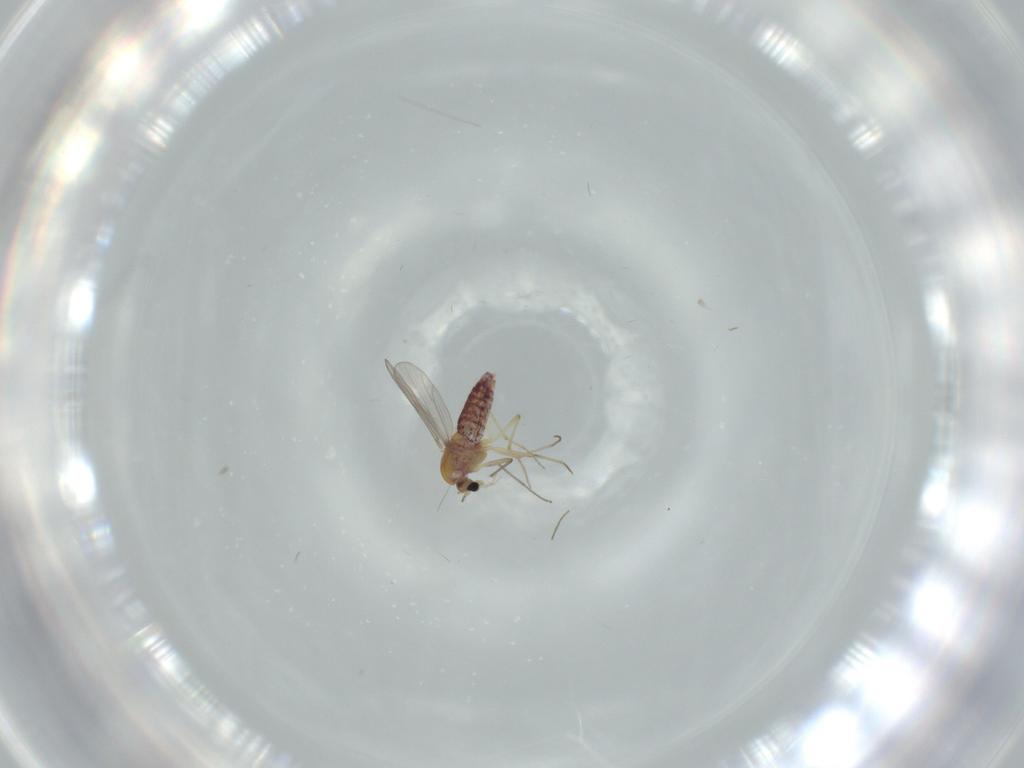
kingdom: Animalia
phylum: Arthropoda
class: Insecta
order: Diptera
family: Chironomidae
